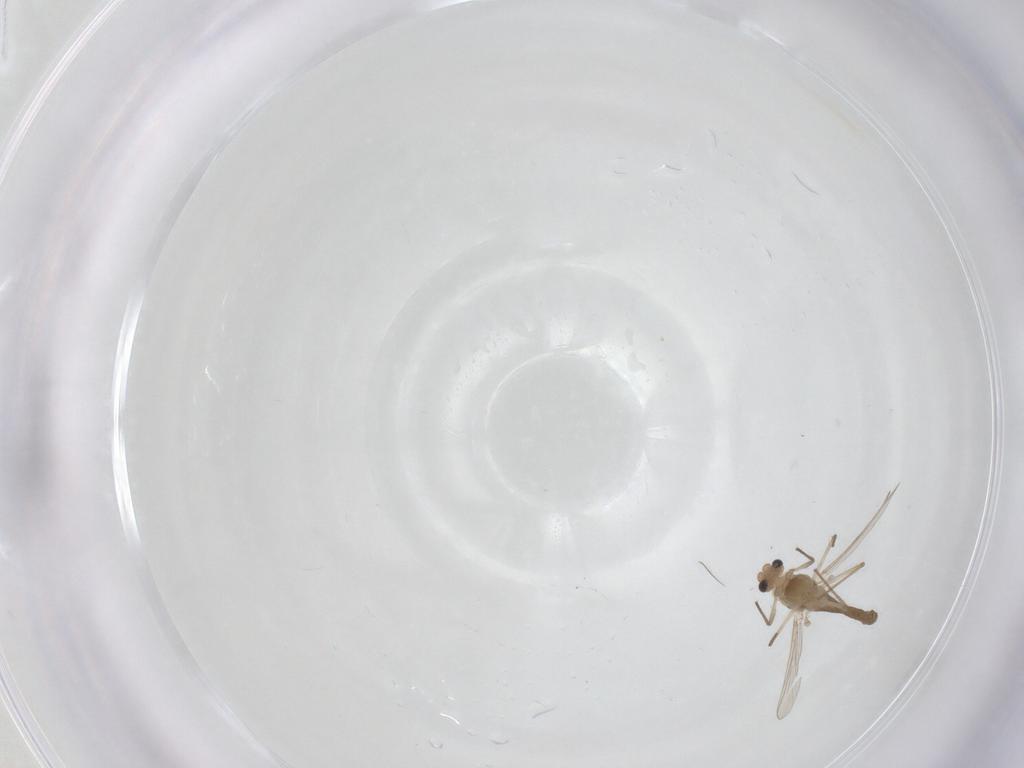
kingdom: Animalia
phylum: Arthropoda
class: Insecta
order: Diptera
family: Chironomidae
